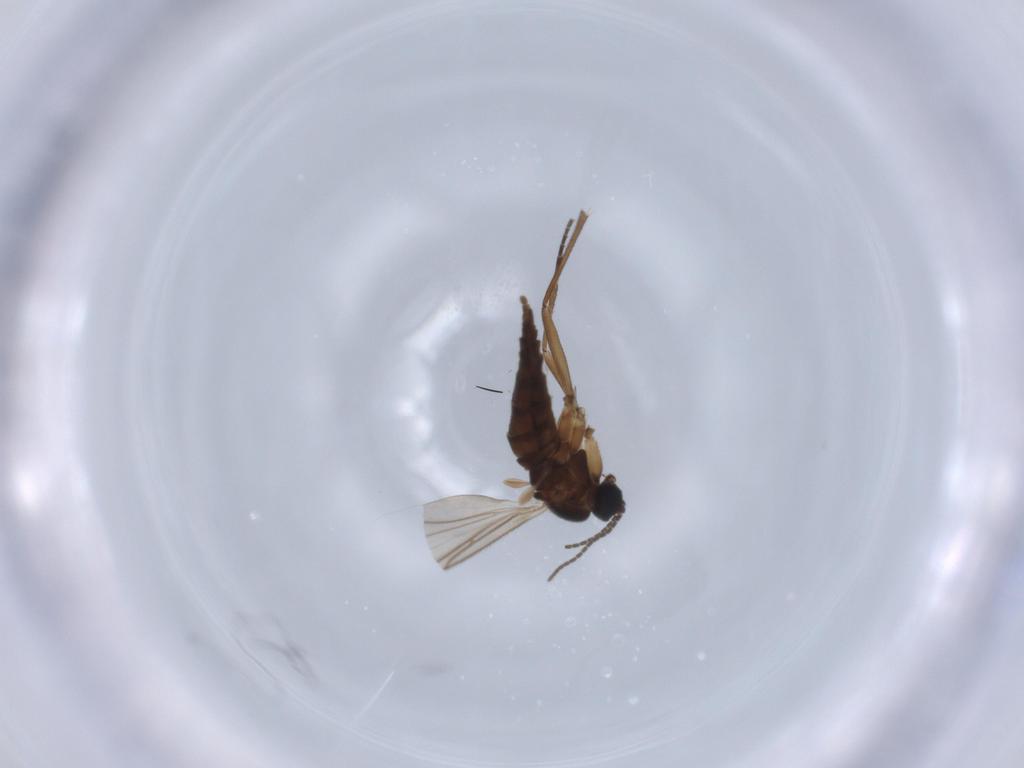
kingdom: Animalia
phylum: Arthropoda
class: Insecta
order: Diptera
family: Sciaridae
